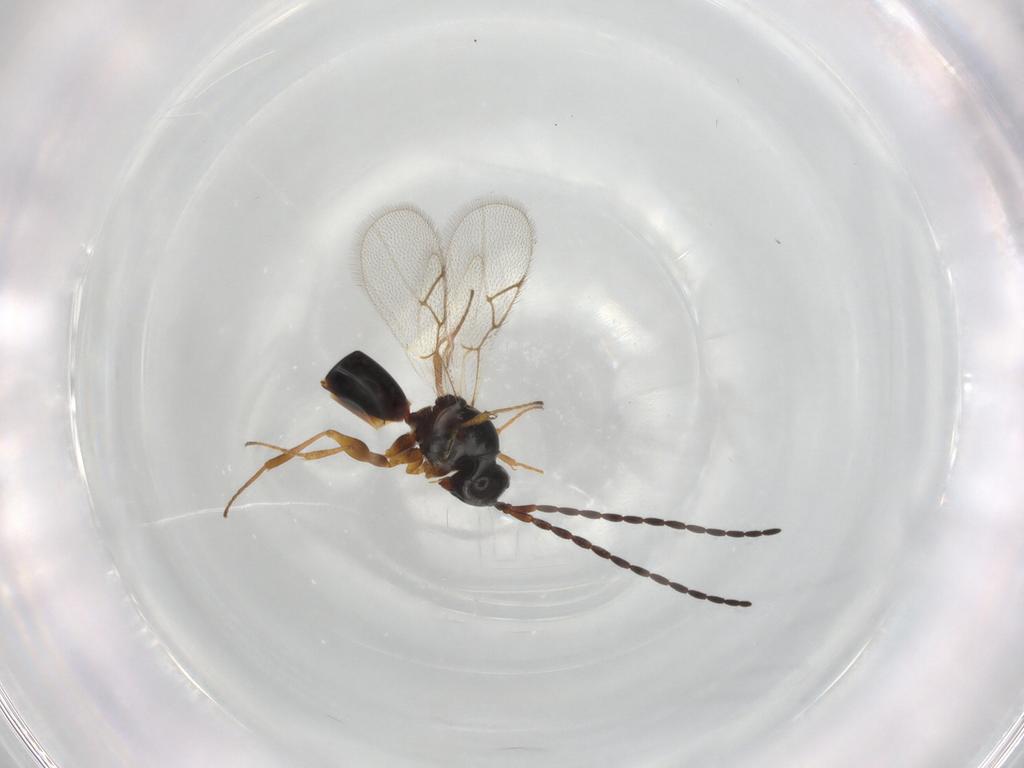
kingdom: Animalia
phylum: Arthropoda
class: Insecta
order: Hymenoptera
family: Figitidae
